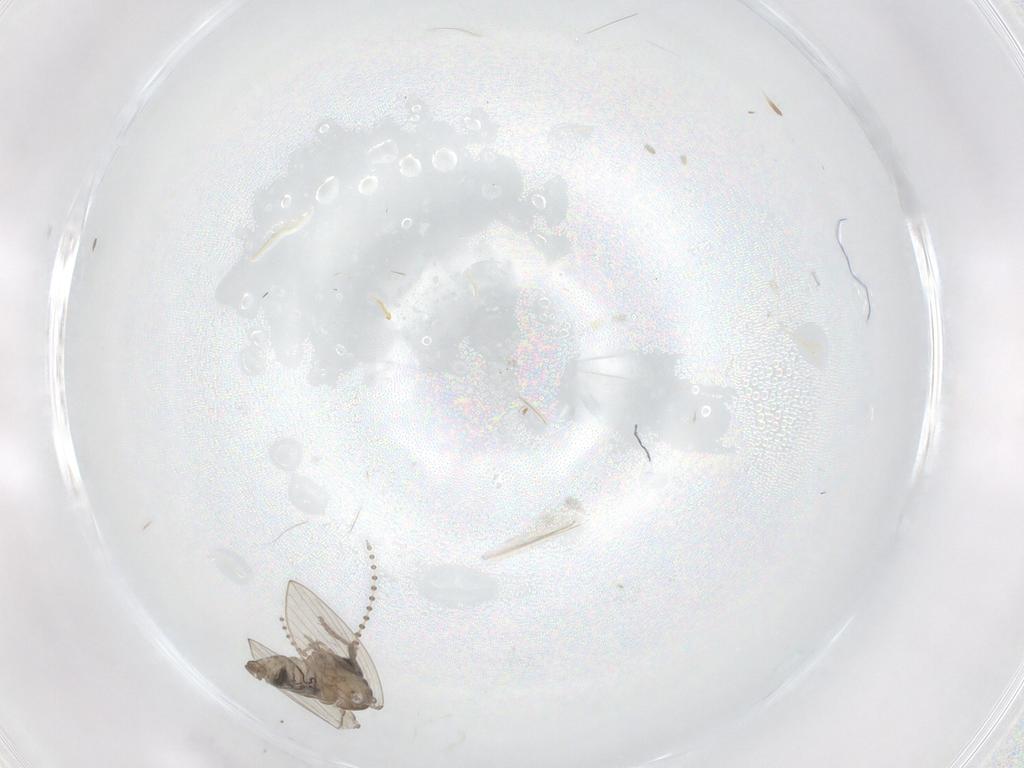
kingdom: Animalia
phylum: Arthropoda
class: Insecta
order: Diptera
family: Psychodidae
